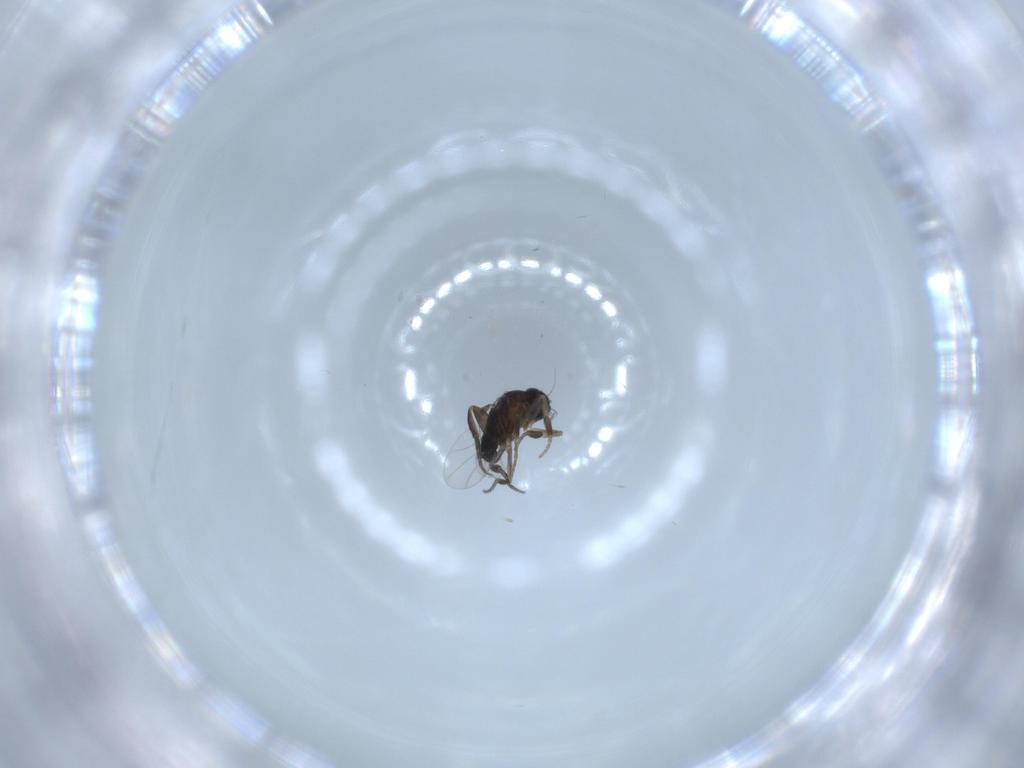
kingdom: Animalia
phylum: Arthropoda
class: Insecta
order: Diptera
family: Phoridae
